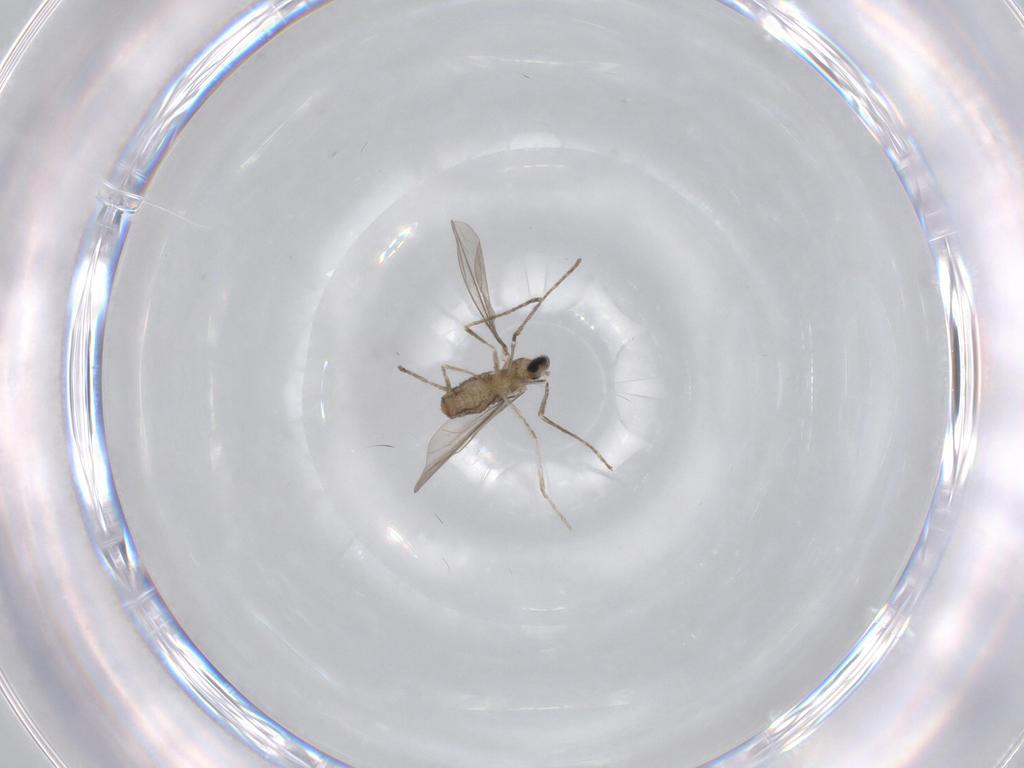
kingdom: Animalia
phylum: Arthropoda
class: Insecta
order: Diptera
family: Cecidomyiidae
